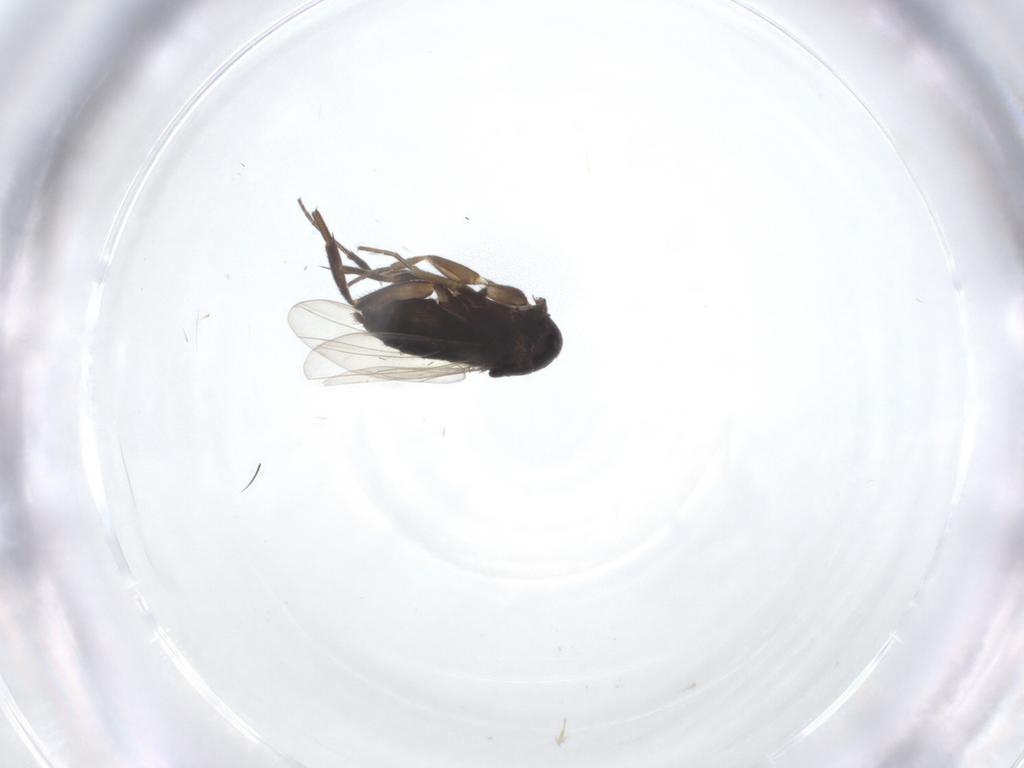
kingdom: Animalia
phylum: Arthropoda
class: Insecta
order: Diptera
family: Phoridae
